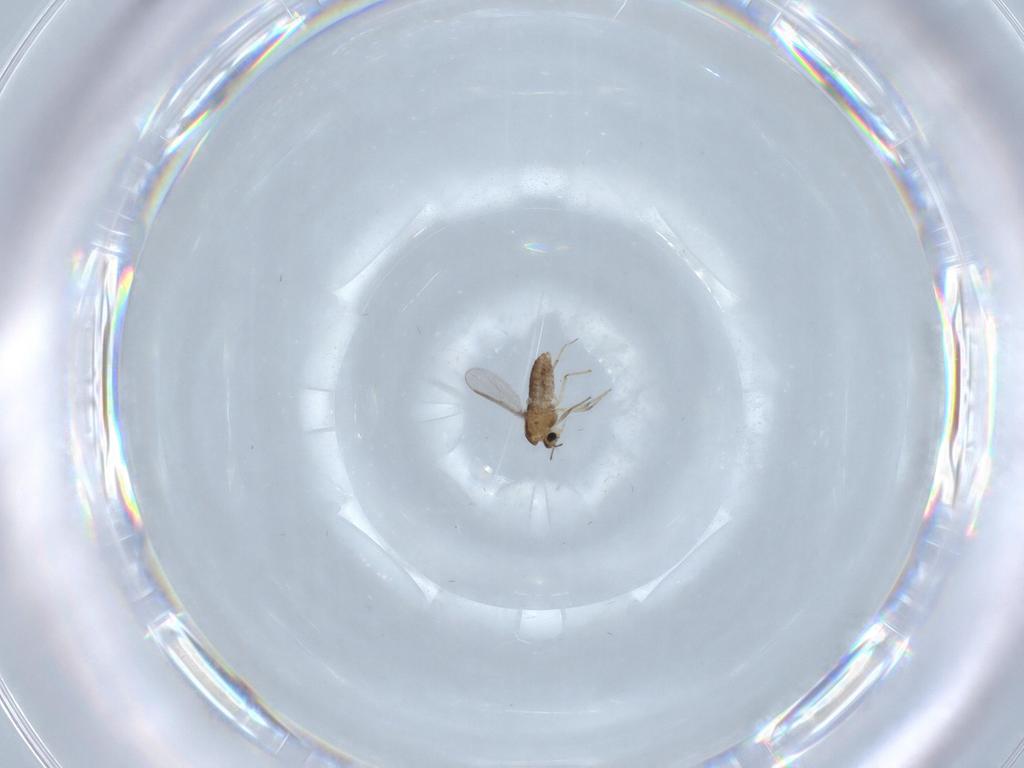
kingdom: Animalia
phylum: Arthropoda
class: Insecta
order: Diptera
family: Chironomidae
